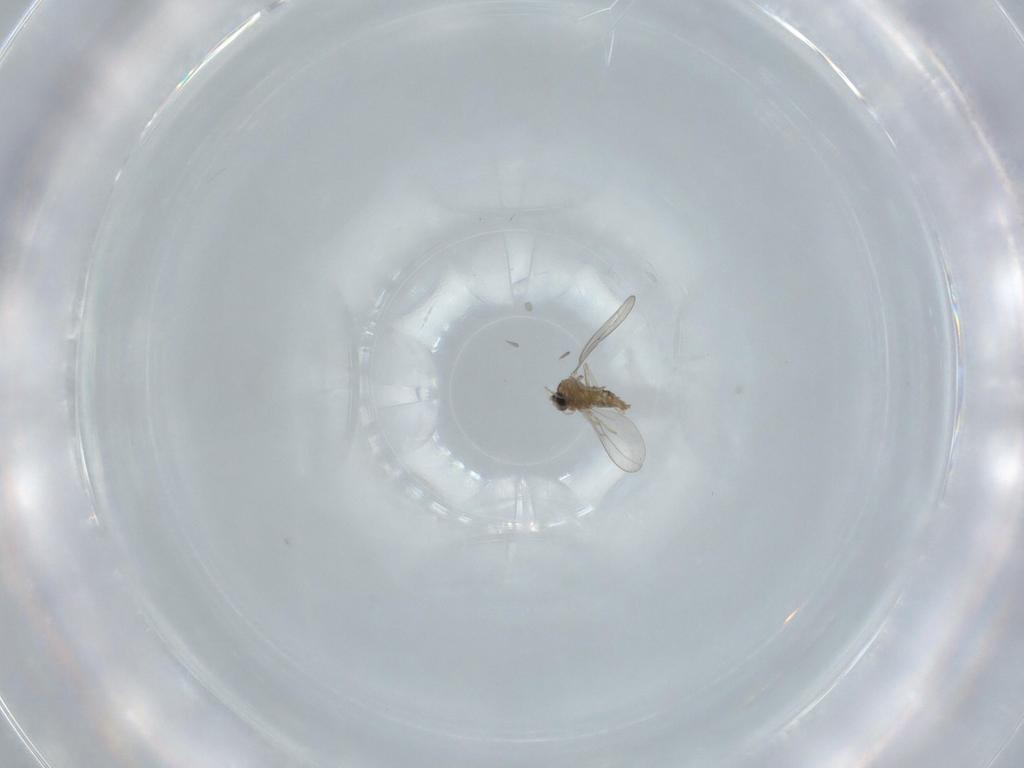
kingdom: Animalia
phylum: Arthropoda
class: Insecta
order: Diptera
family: Cecidomyiidae
